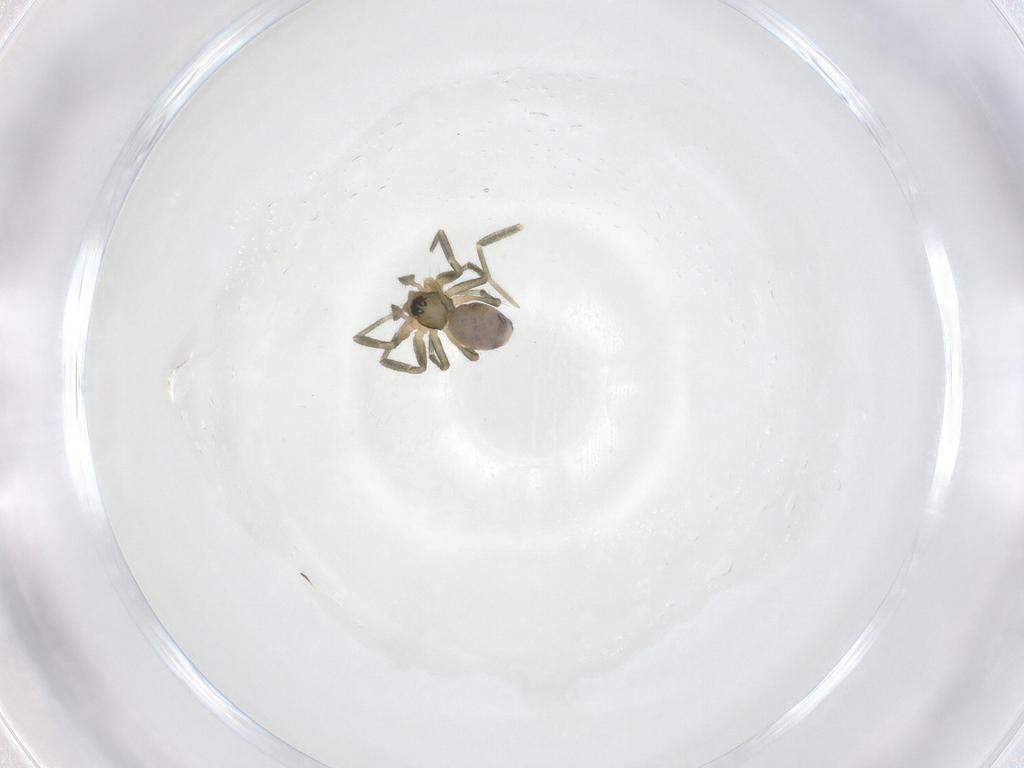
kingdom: Animalia
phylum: Arthropoda
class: Arachnida
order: Araneae
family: Linyphiidae
